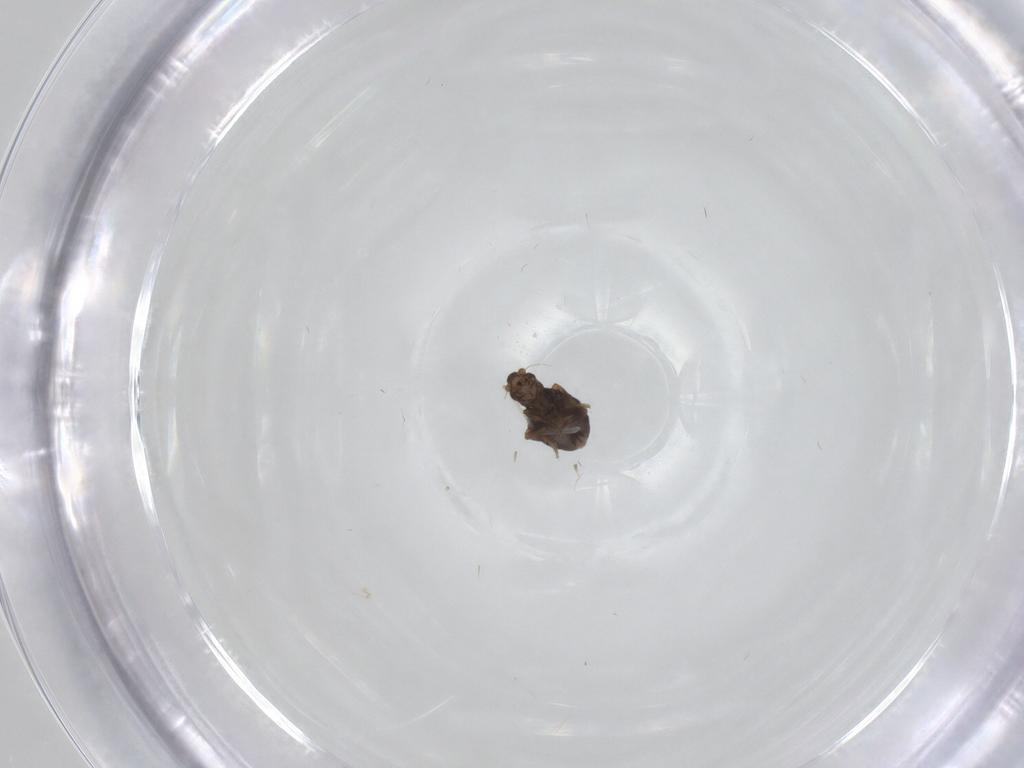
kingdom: Animalia
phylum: Arthropoda
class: Insecta
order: Diptera
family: Phoridae
